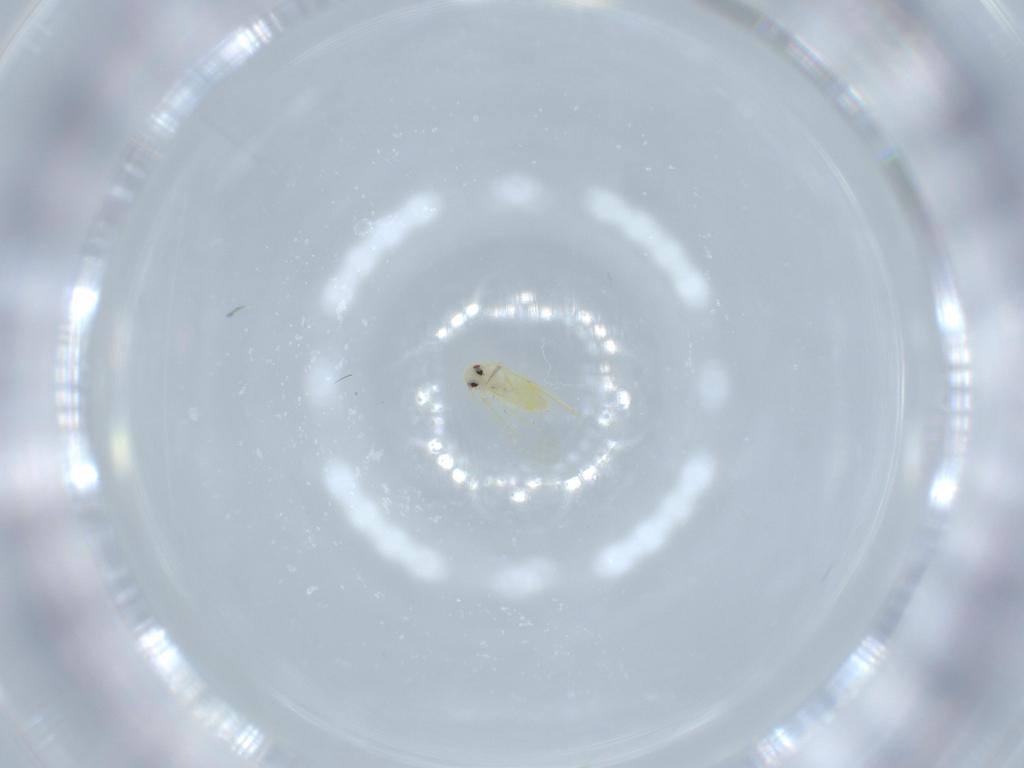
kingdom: Animalia
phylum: Arthropoda
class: Insecta
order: Hemiptera
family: Aleyrodidae
